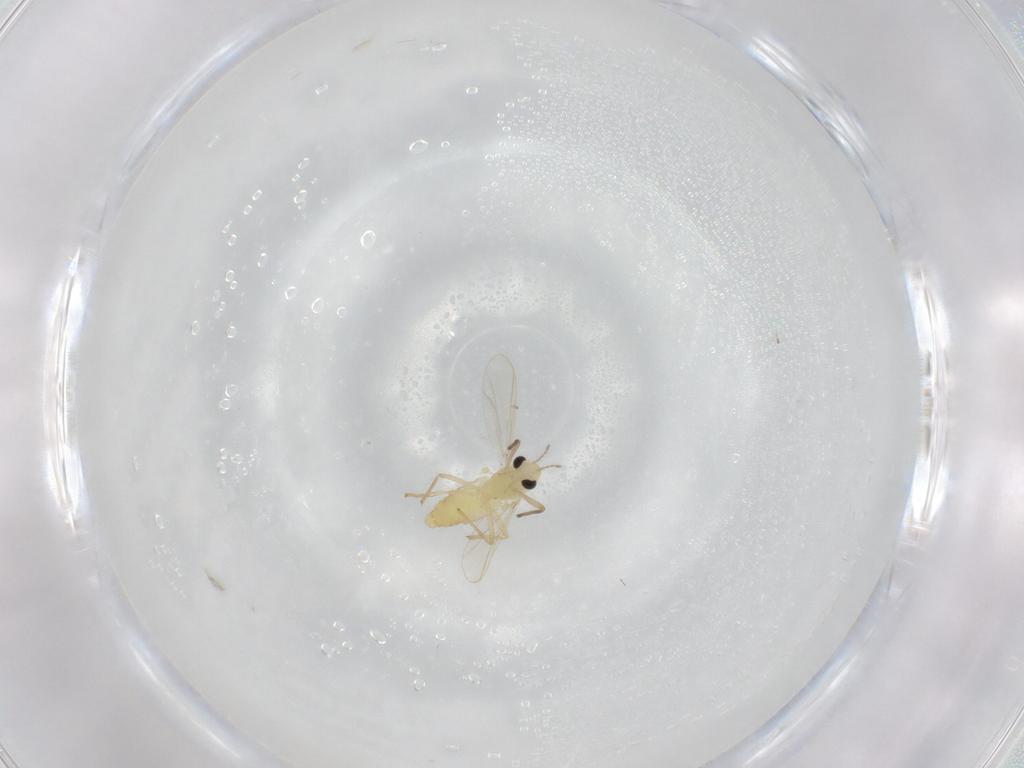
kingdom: Animalia
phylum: Arthropoda
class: Insecta
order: Diptera
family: Chironomidae
